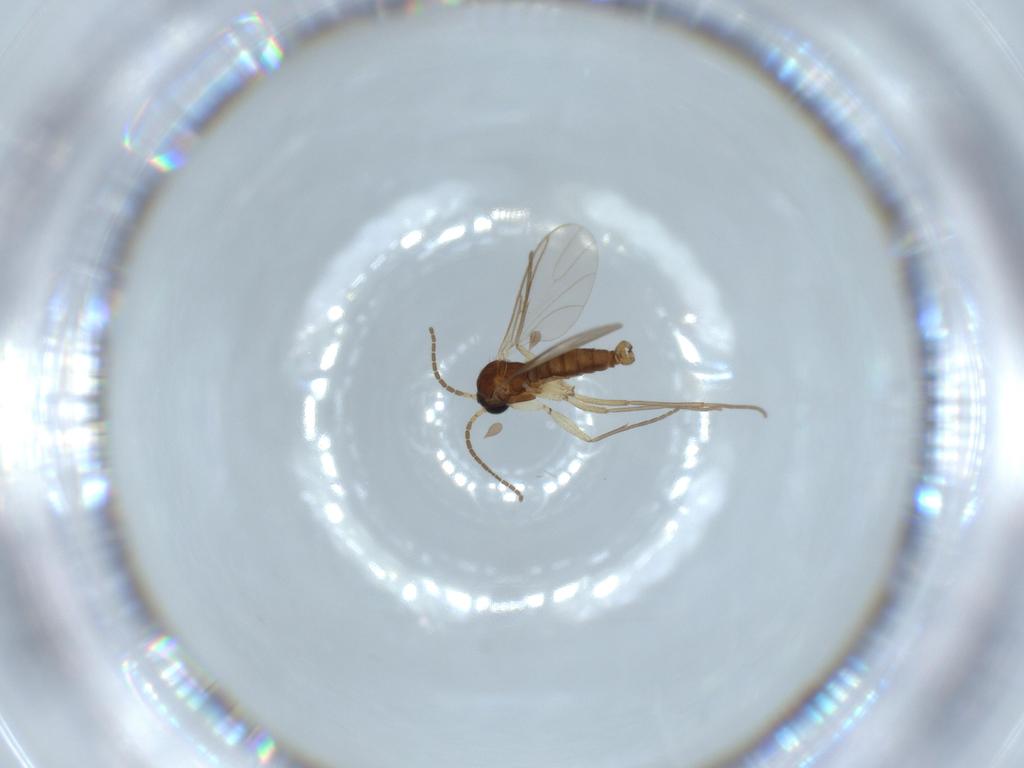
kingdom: Animalia
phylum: Arthropoda
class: Insecta
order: Diptera
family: Sciaridae
